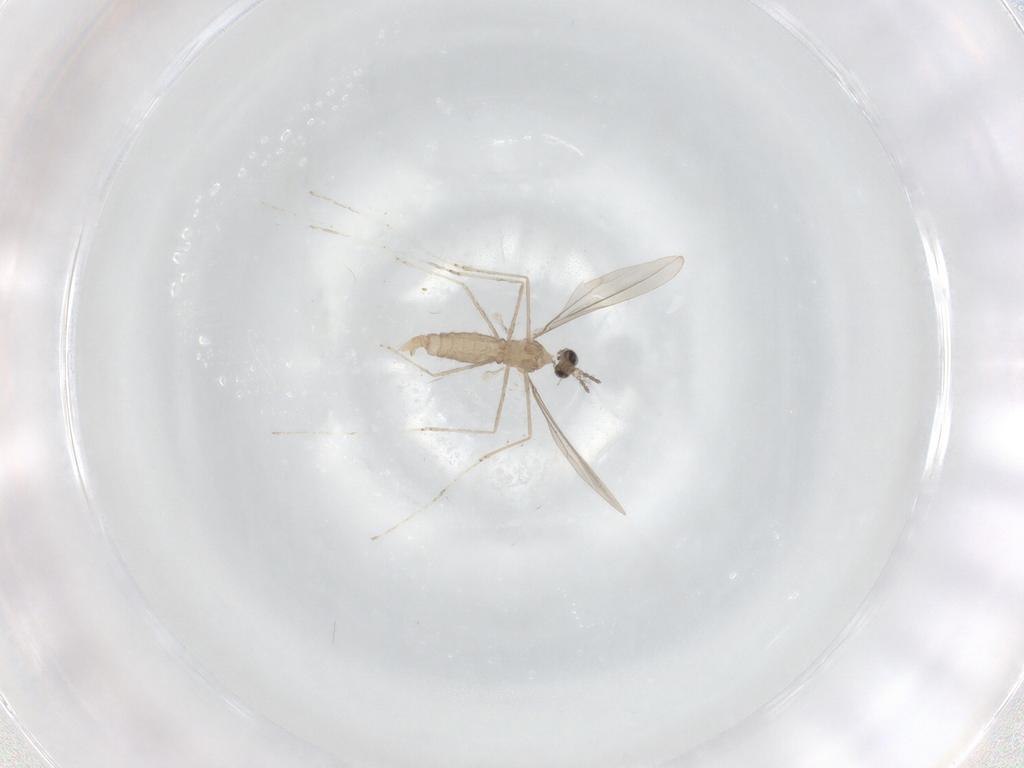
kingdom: Animalia
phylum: Arthropoda
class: Insecta
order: Diptera
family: Cecidomyiidae
